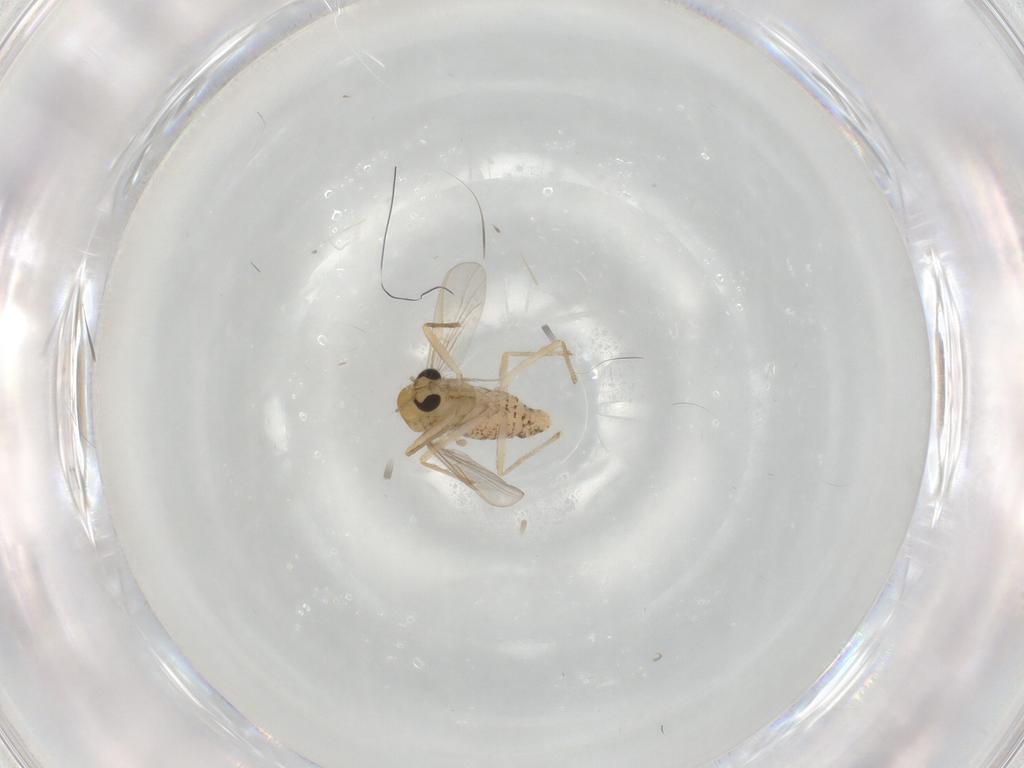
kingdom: Animalia
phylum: Arthropoda
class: Insecta
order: Diptera
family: Chironomidae
